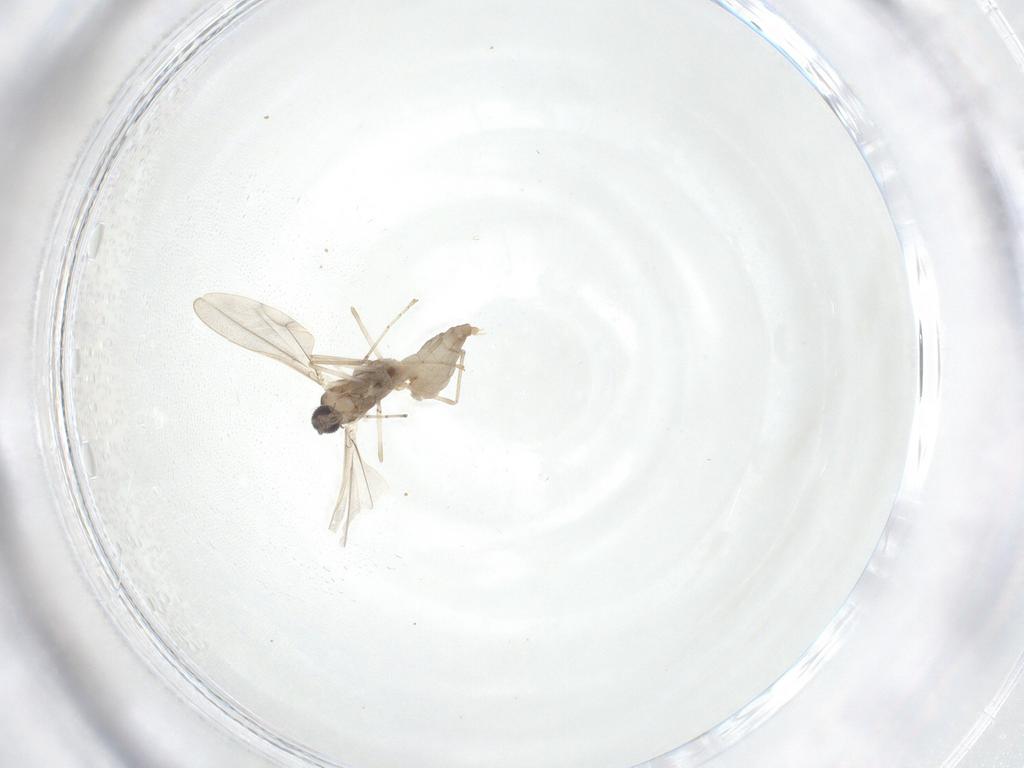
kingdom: Animalia
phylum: Arthropoda
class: Insecta
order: Diptera
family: Cecidomyiidae
